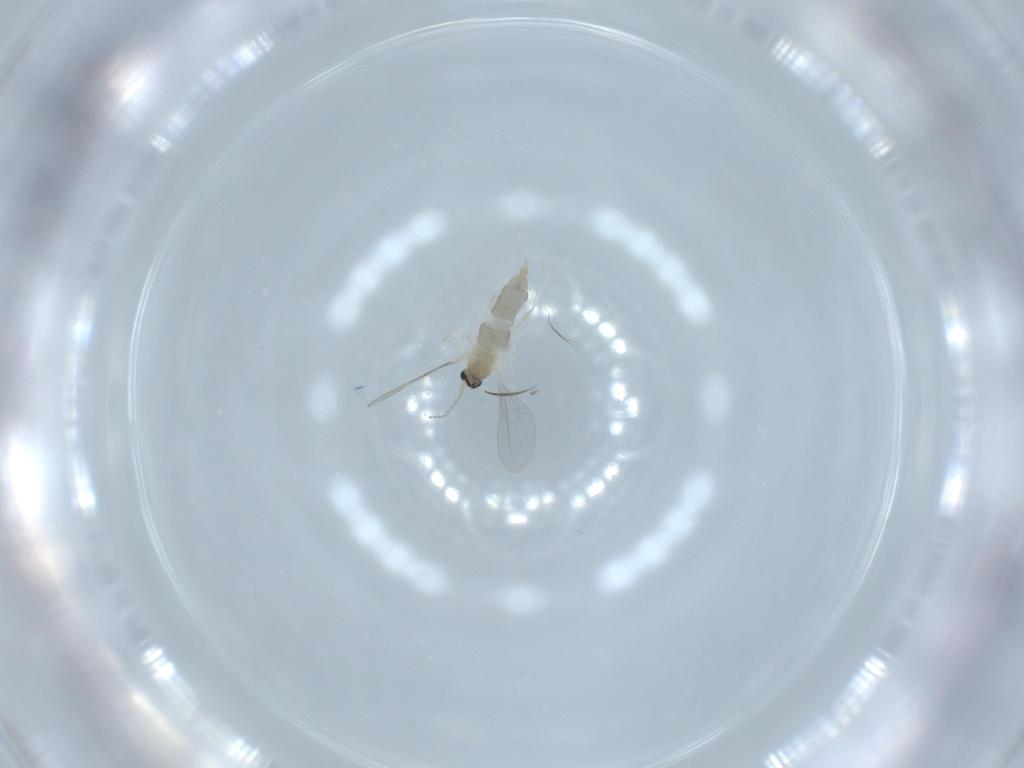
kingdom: Animalia
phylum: Arthropoda
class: Insecta
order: Diptera
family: Cecidomyiidae
